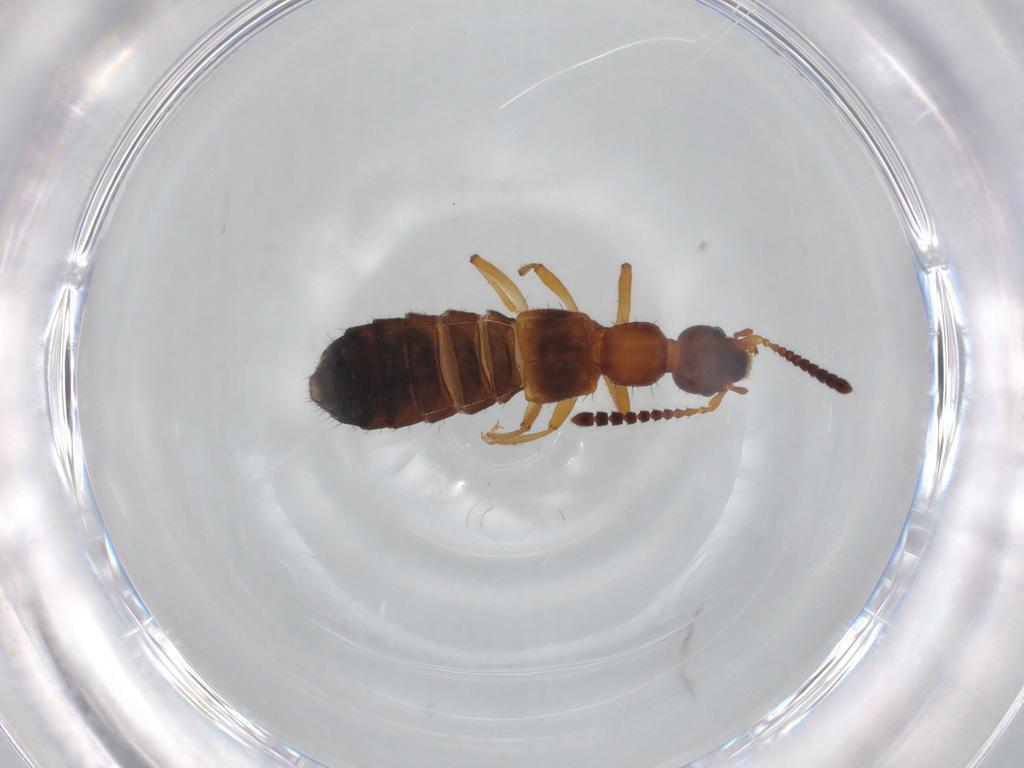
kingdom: Animalia
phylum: Arthropoda
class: Insecta
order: Coleoptera
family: Staphylinidae
